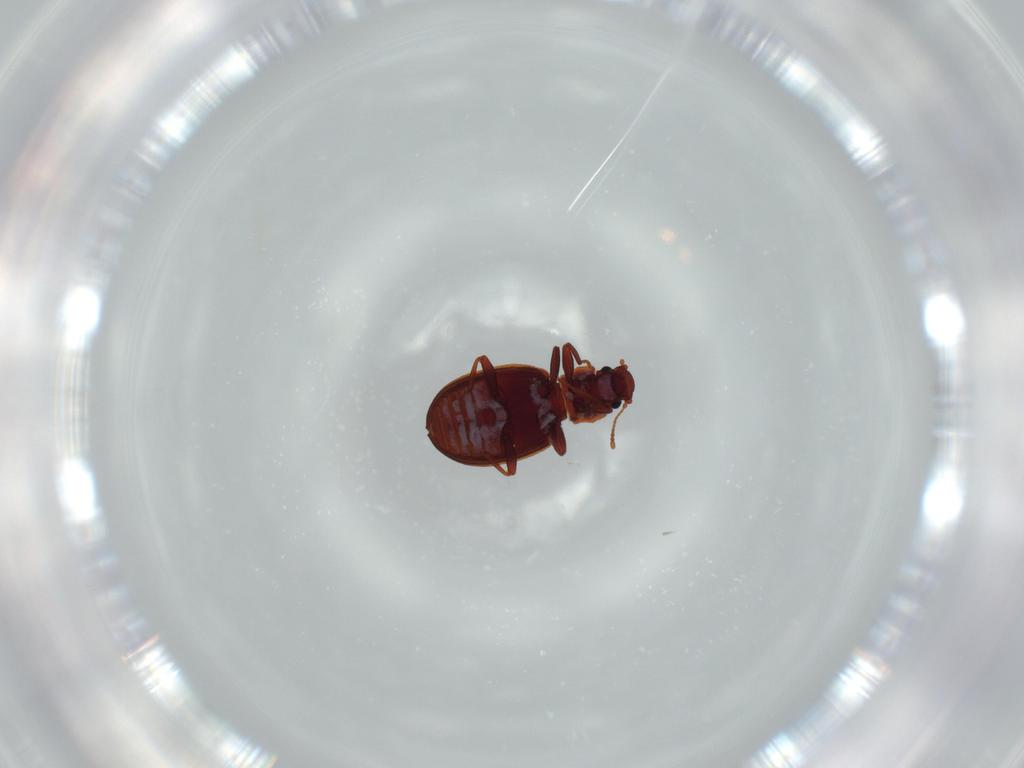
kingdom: Animalia
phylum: Arthropoda
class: Insecta
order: Coleoptera
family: Latridiidae
